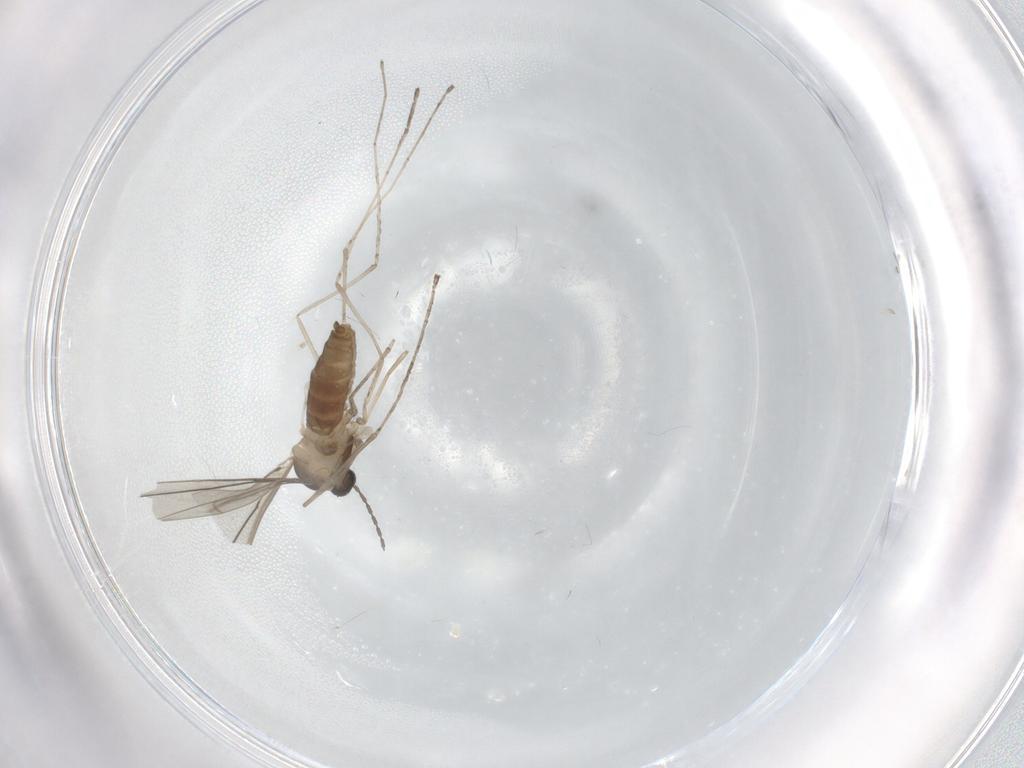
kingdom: Animalia
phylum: Arthropoda
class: Insecta
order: Diptera
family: Cecidomyiidae
